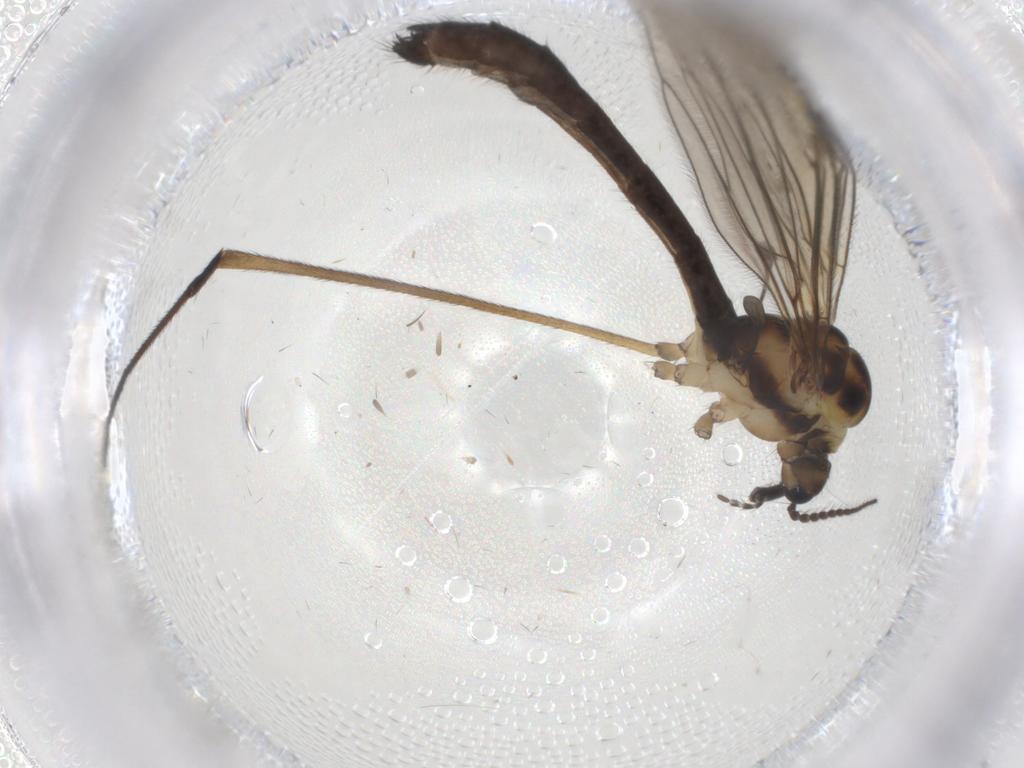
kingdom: Animalia
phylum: Arthropoda
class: Insecta
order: Diptera
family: Limoniidae
